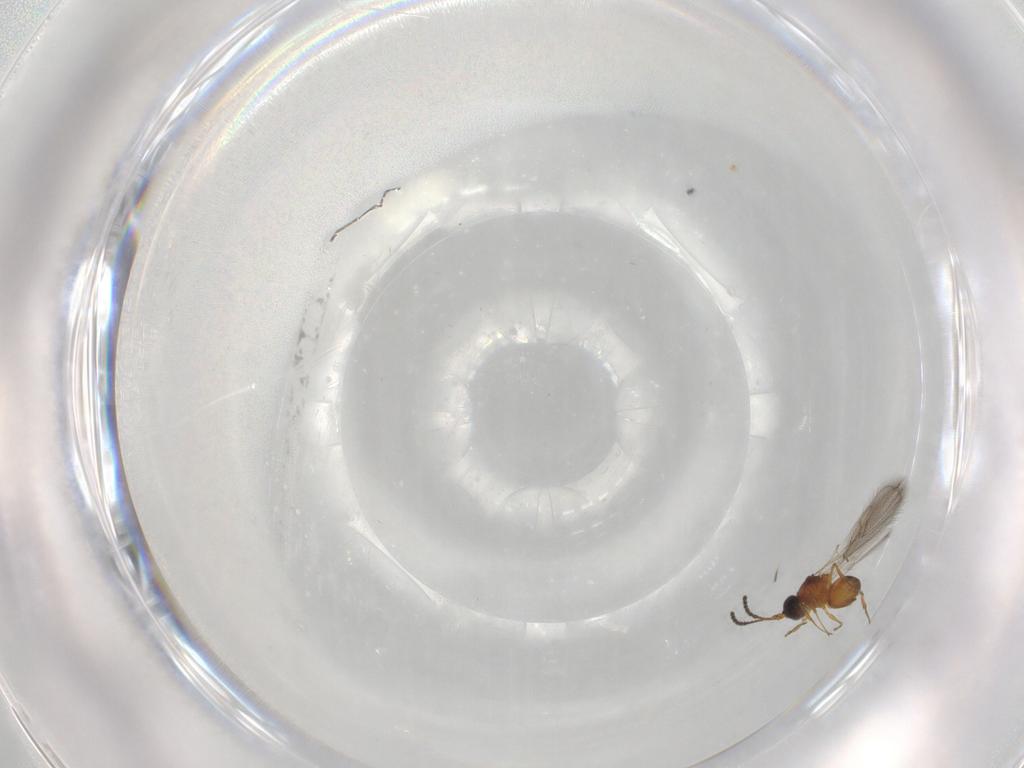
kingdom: Animalia
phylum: Arthropoda
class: Insecta
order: Hymenoptera
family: Figitidae
